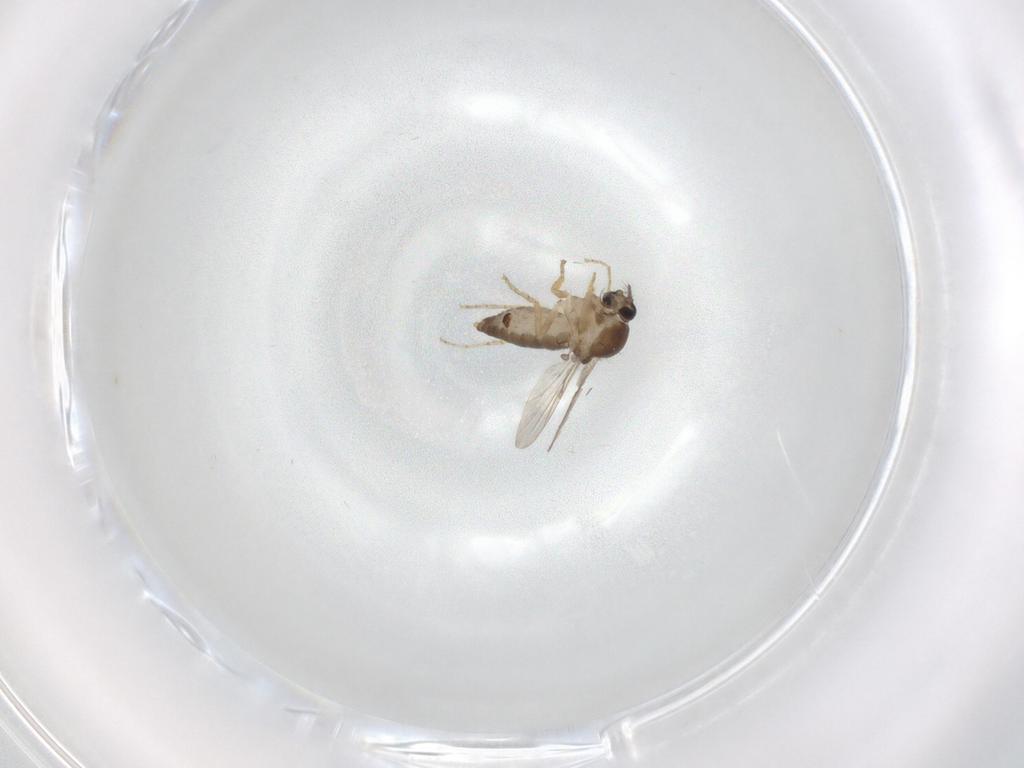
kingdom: Animalia
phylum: Arthropoda
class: Insecta
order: Diptera
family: Ceratopogonidae
